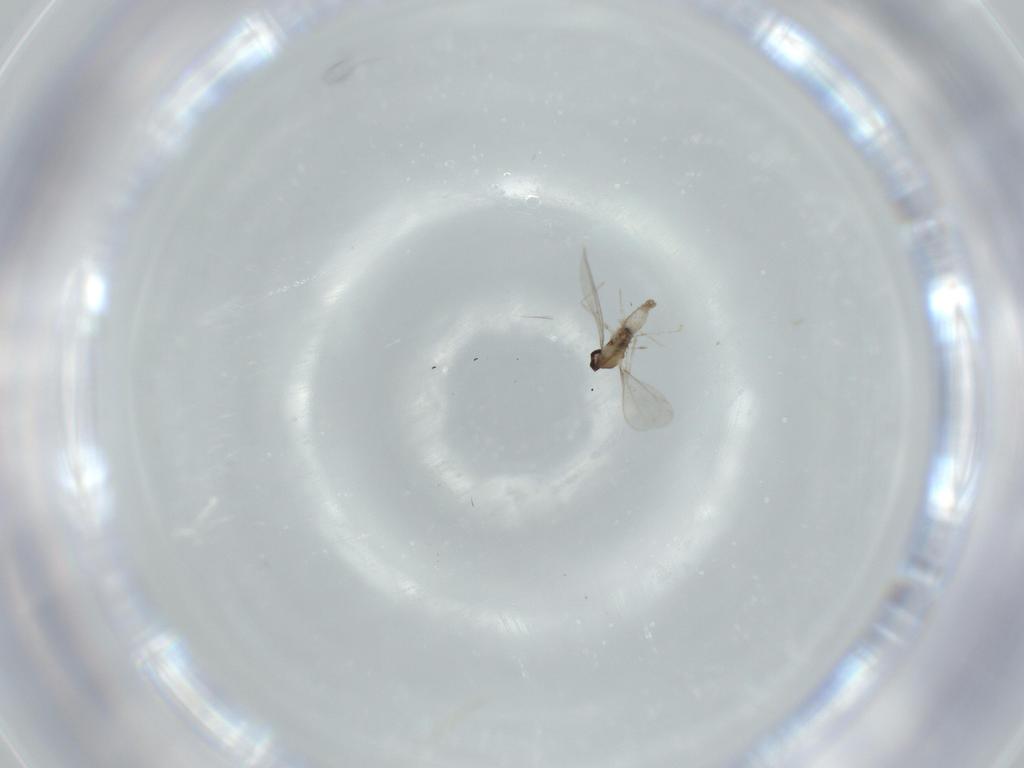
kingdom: Animalia
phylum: Arthropoda
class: Insecta
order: Diptera
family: Cecidomyiidae
